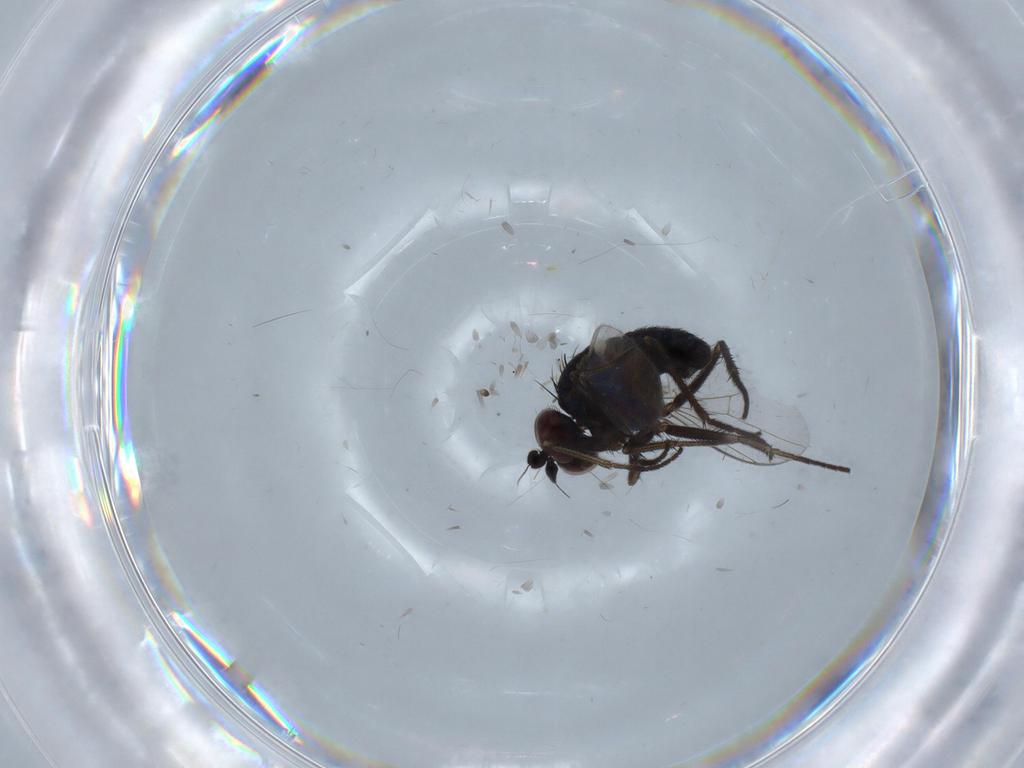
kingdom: Animalia
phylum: Arthropoda
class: Insecta
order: Diptera
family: Dolichopodidae
